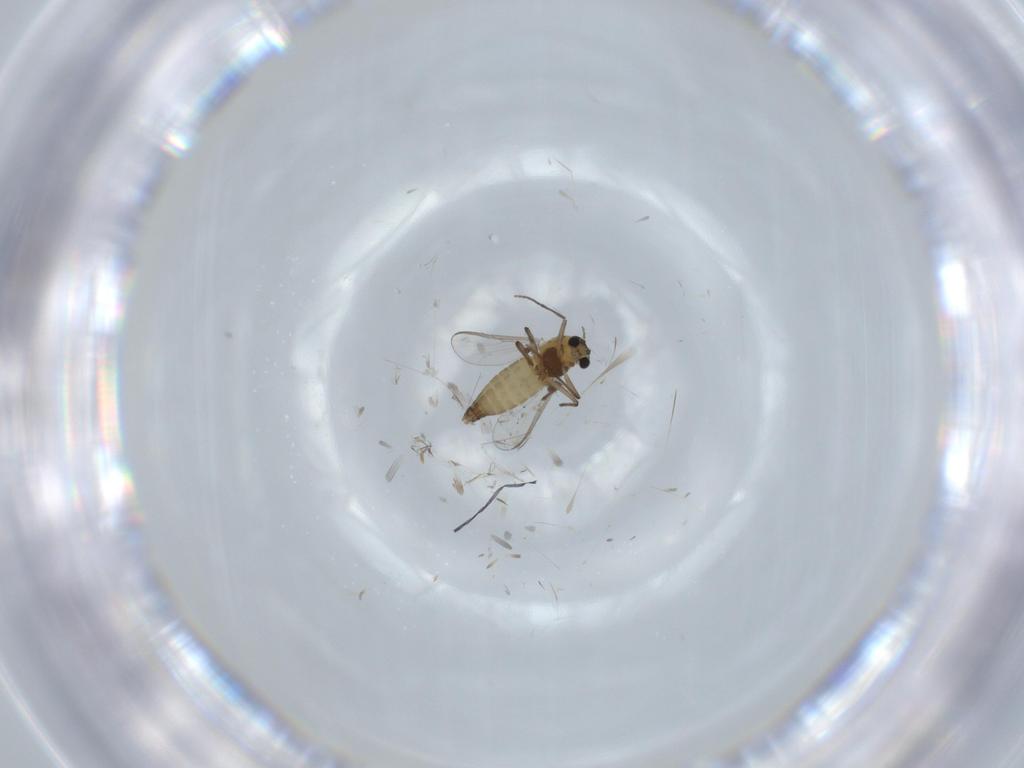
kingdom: Animalia
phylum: Arthropoda
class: Insecta
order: Diptera
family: Chironomidae
